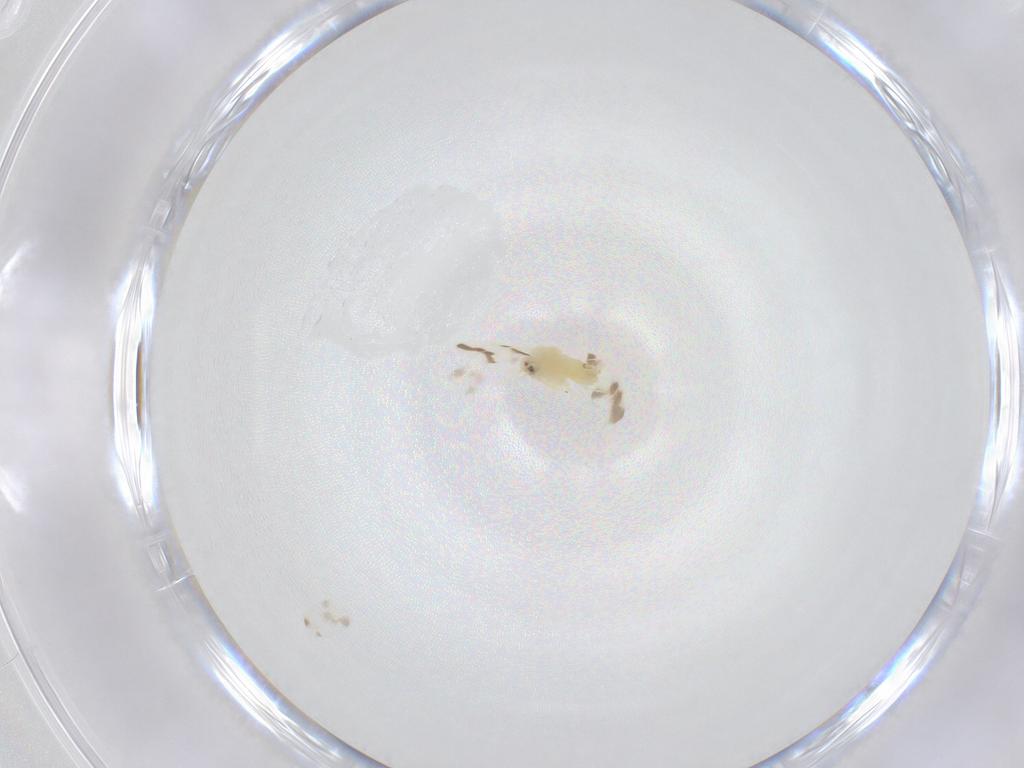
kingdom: Animalia
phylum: Arthropoda
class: Insecta
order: Hemiptera
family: Aleyrodidae
